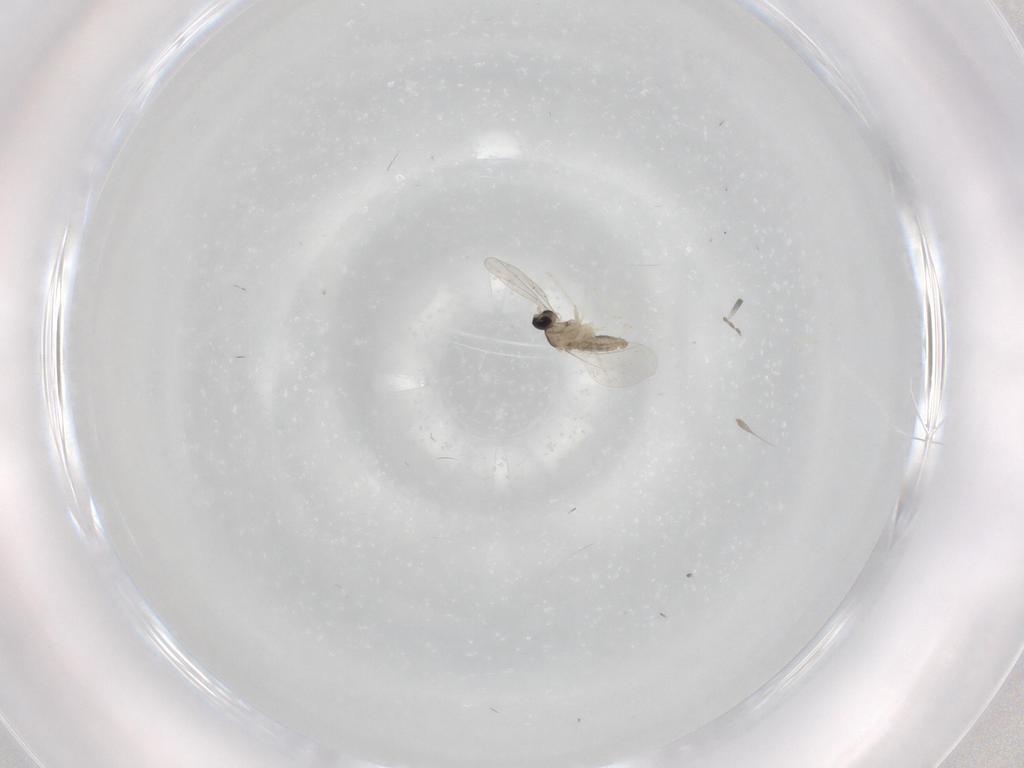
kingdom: Animalia
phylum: Arthropoda
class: Insecta
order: Diptera
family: Cecidomyiidae
